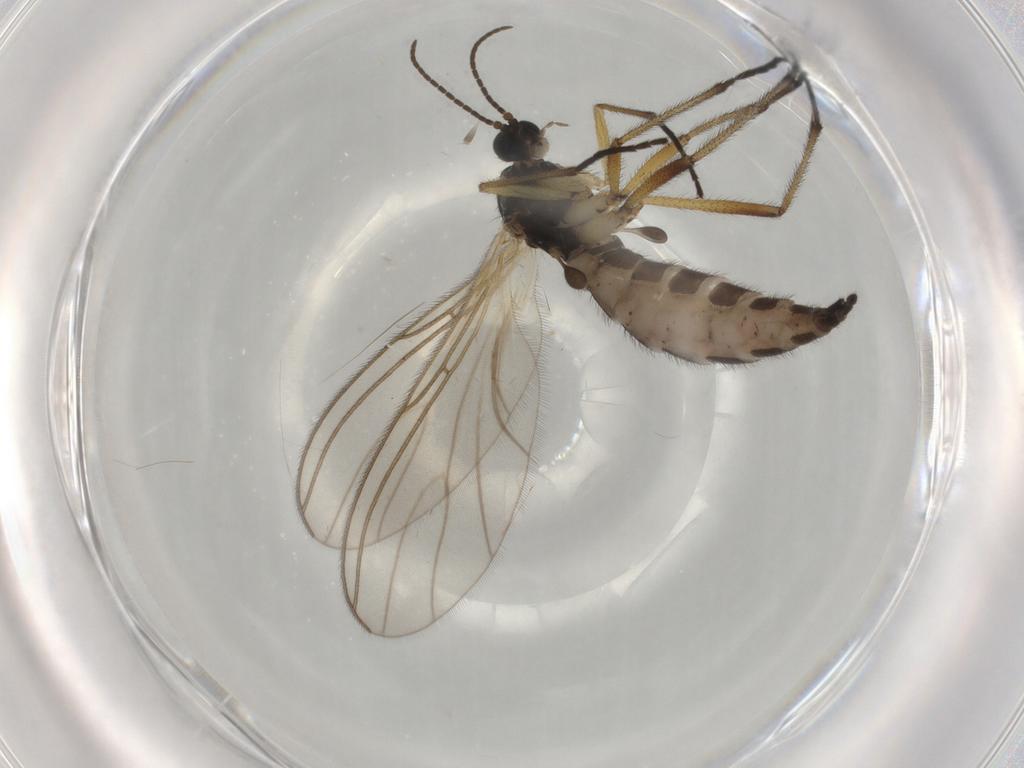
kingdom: Animalia
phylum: Arthropoda
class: Insecta
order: Diptera
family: Sciaridae
